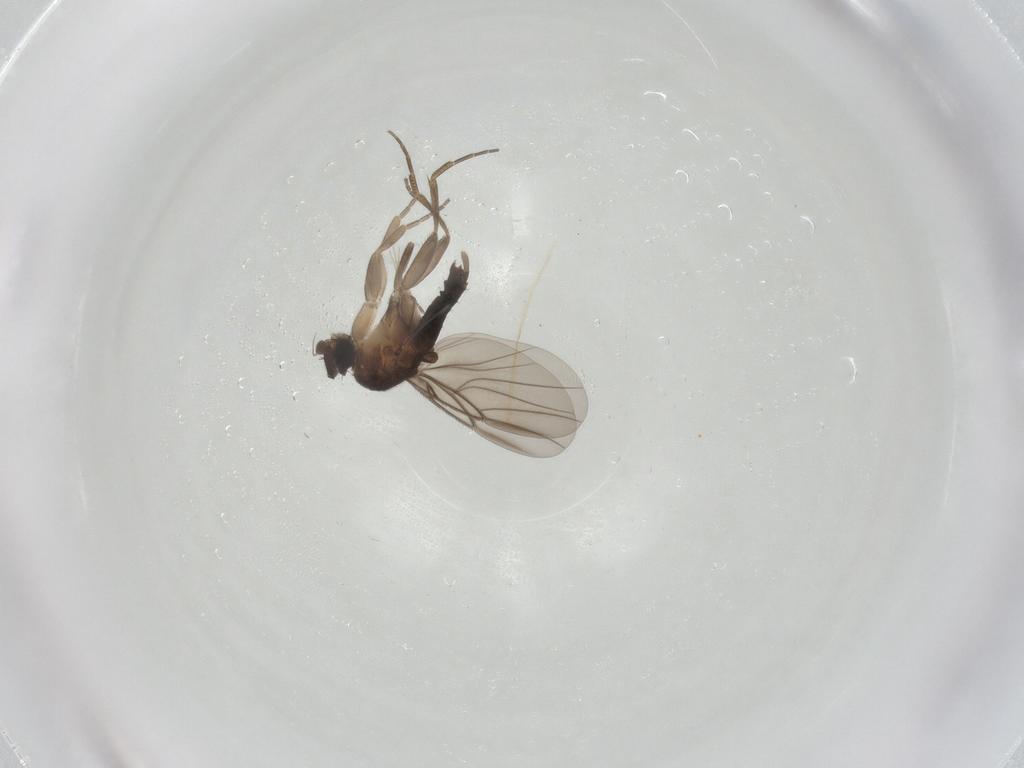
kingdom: Animalia
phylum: Arthropoda
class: Insecta
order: Diptera
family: Phoridae
